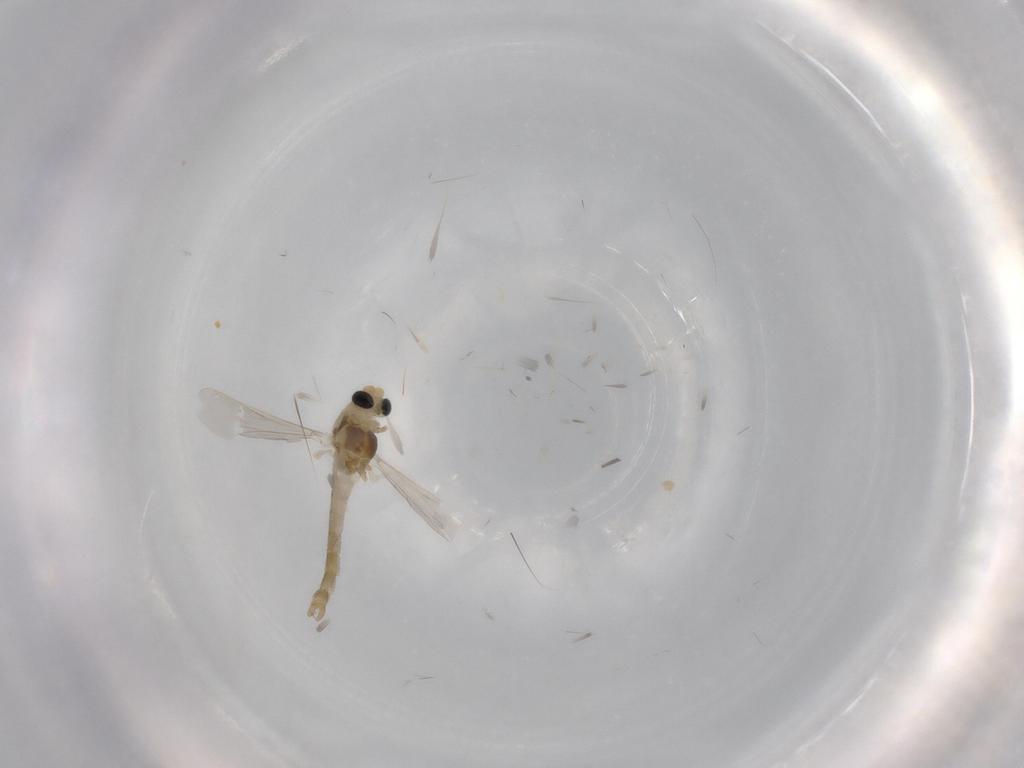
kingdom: Animalia
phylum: Arthropoda
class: Insecta
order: Diptera
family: Chironomidae
